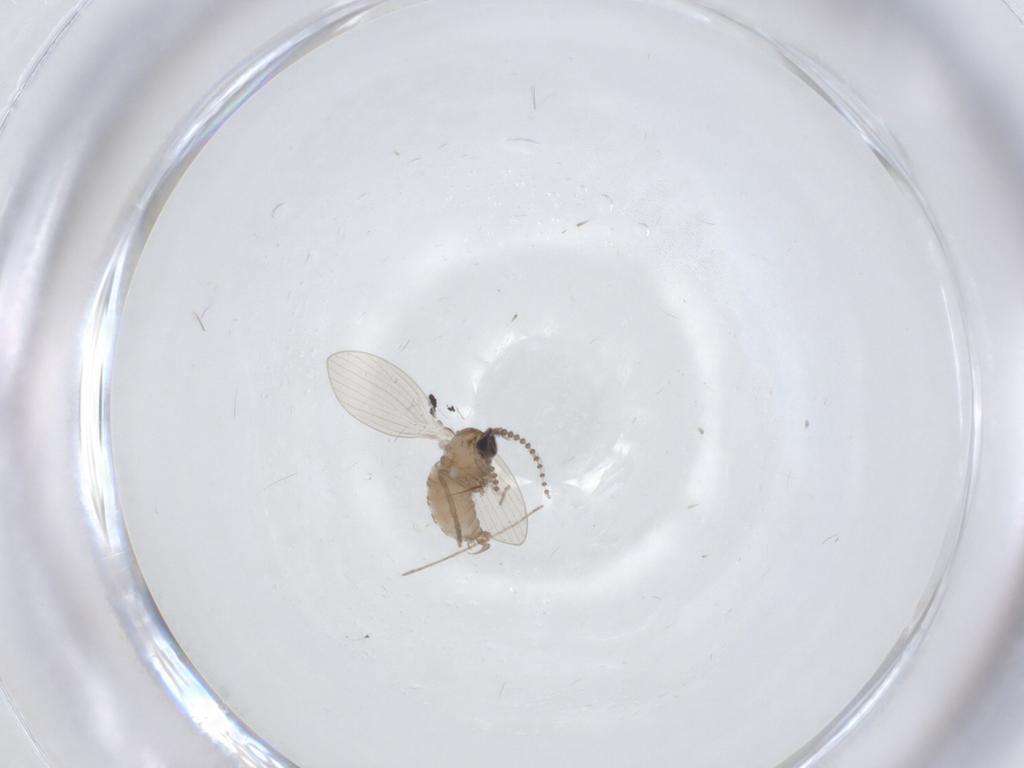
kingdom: Animalia
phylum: Arthropoda
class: Insecta
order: Diptera
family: Psychodidae
